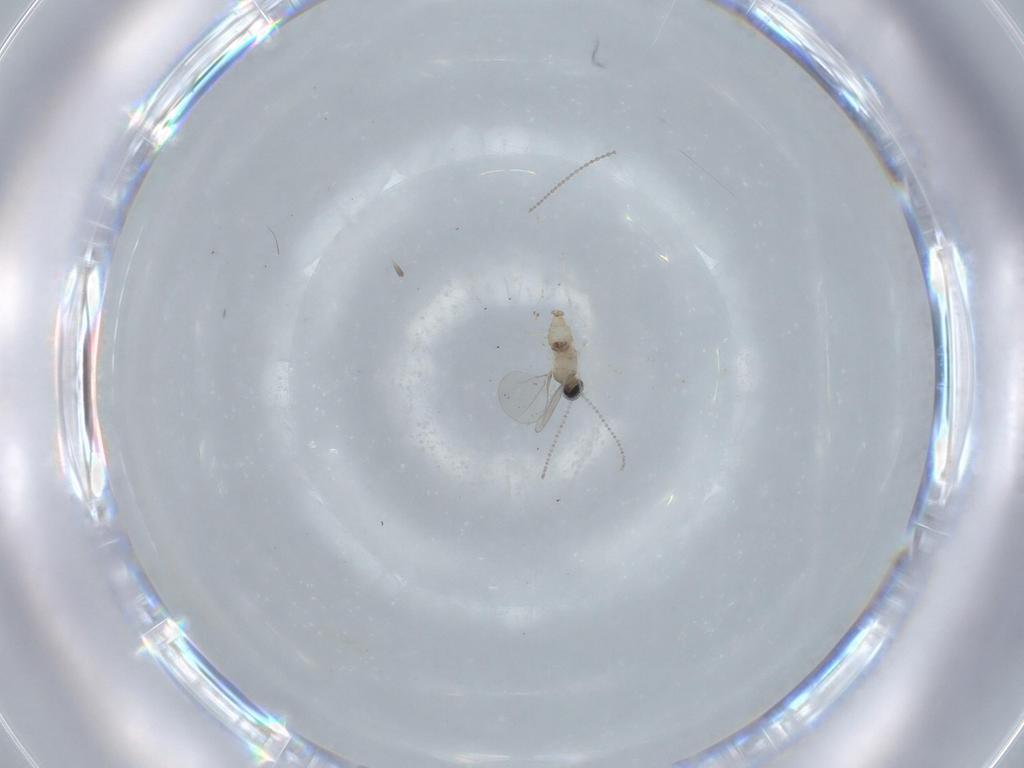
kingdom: Animalia
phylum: Arthropoda
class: Insecta
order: Diptera
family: Cecidomyiidae
